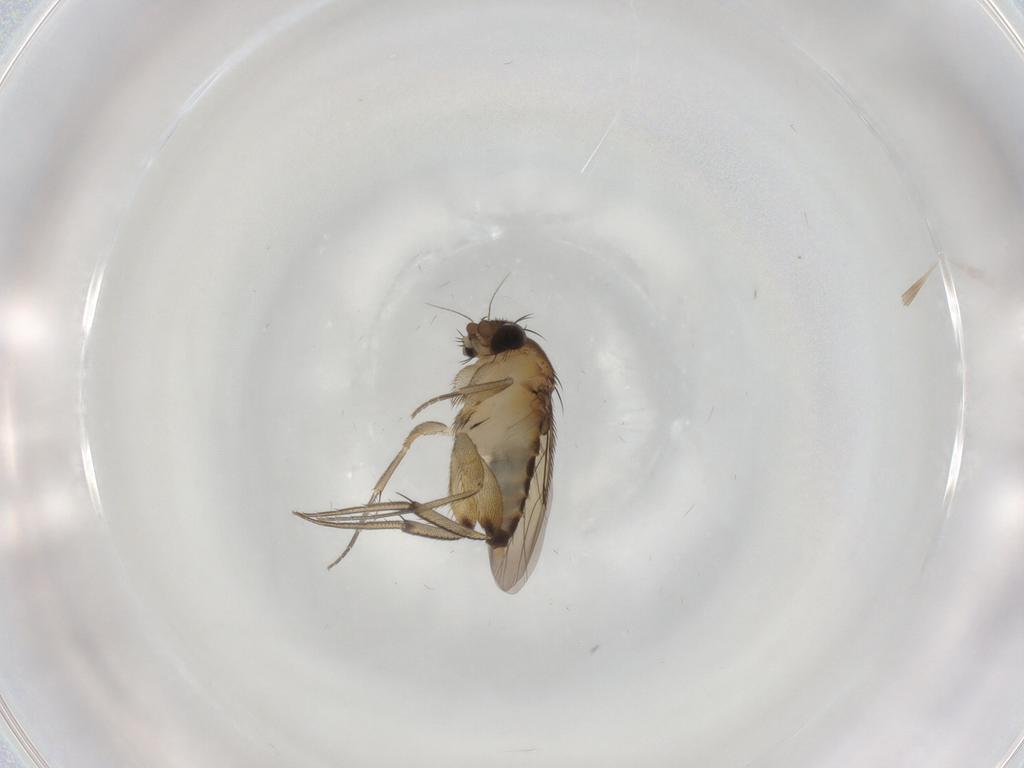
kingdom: Animalia
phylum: Arthropoda
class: Insecta
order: Diptera
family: Phoridae
